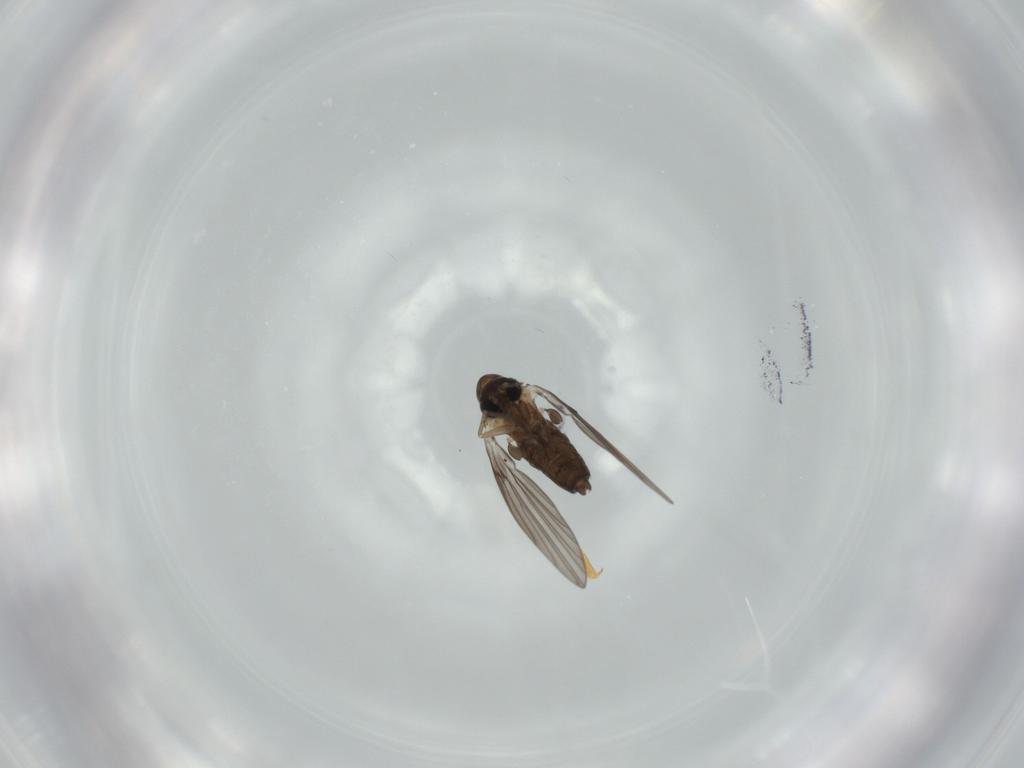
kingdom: Animalia
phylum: Arthropoda
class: Insecta
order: Diptera
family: Psychodidae
